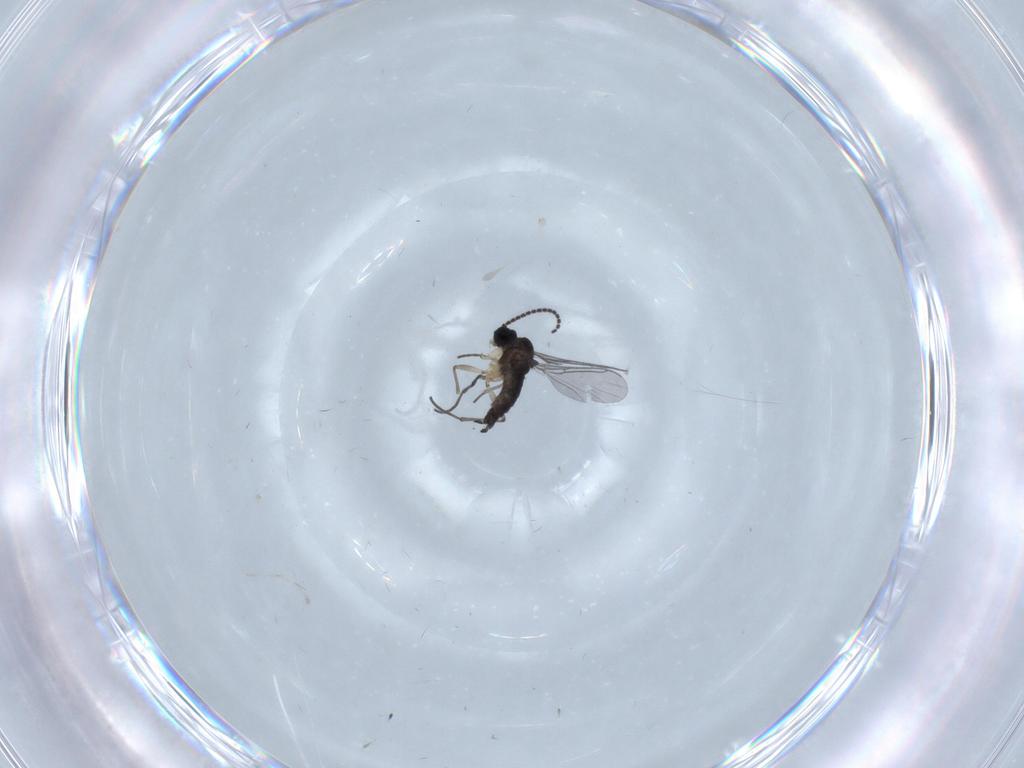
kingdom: Animalia
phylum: Arthropoda
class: Insecta
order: Diptera
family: Sciaridae
